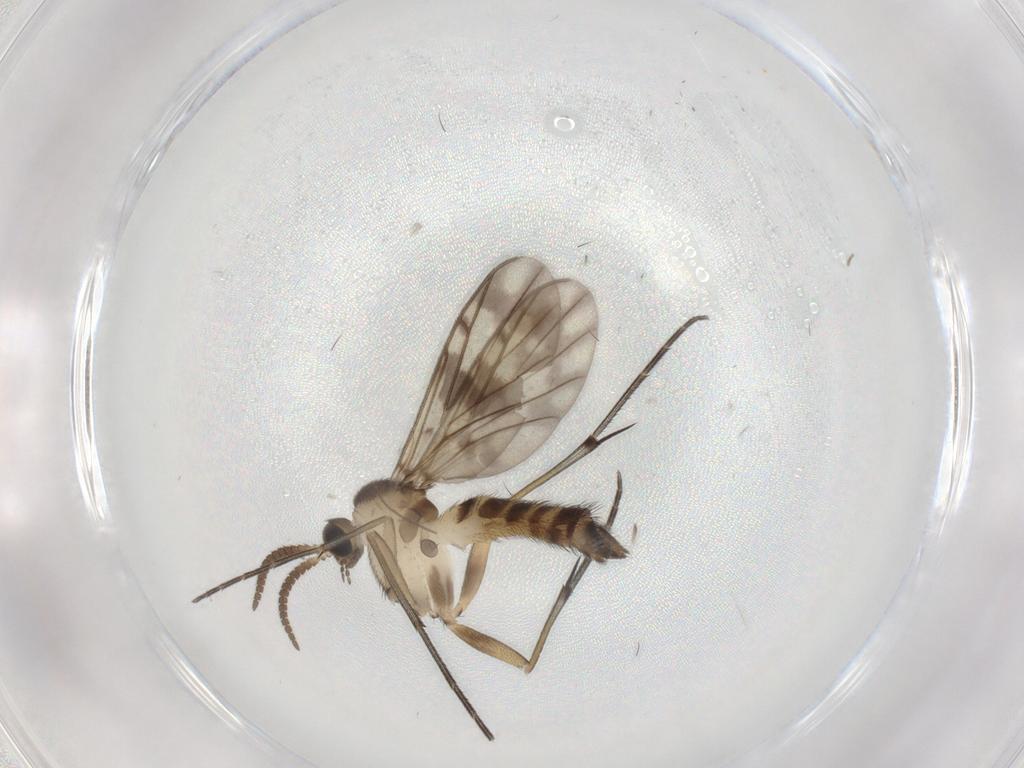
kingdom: Animalia
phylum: Arthropoda
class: Insecta
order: Diptera
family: Keroplatidae
